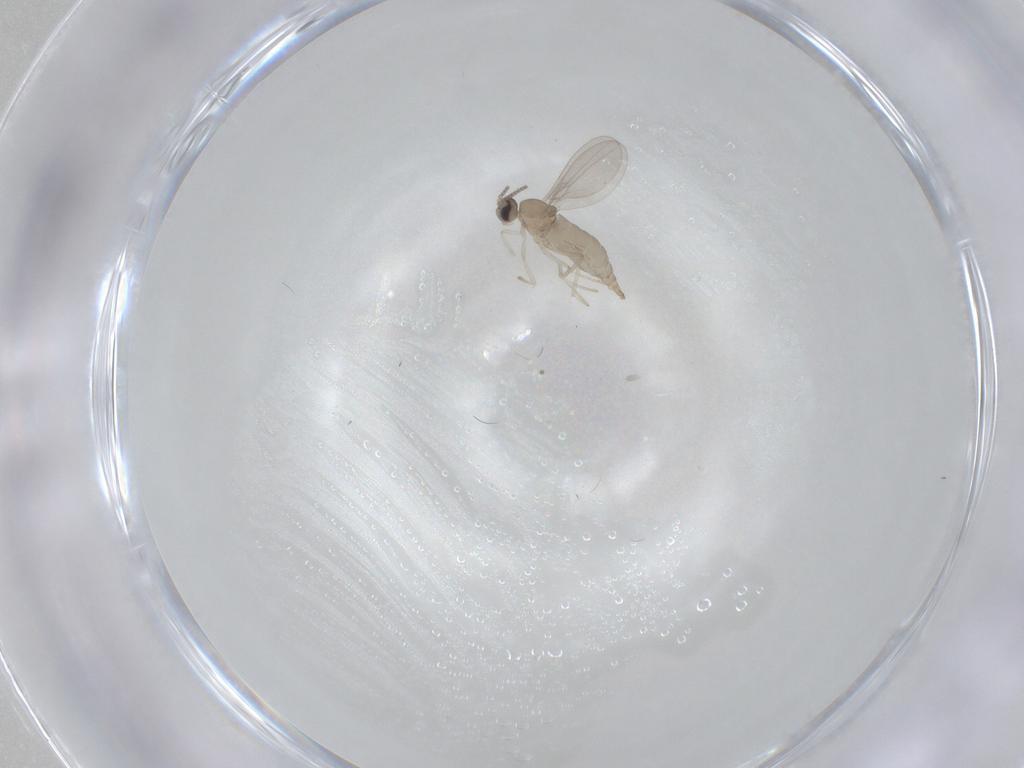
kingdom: Animalia
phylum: Arthropoda
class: Insecta
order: Diptera
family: Cecidomyiidae
